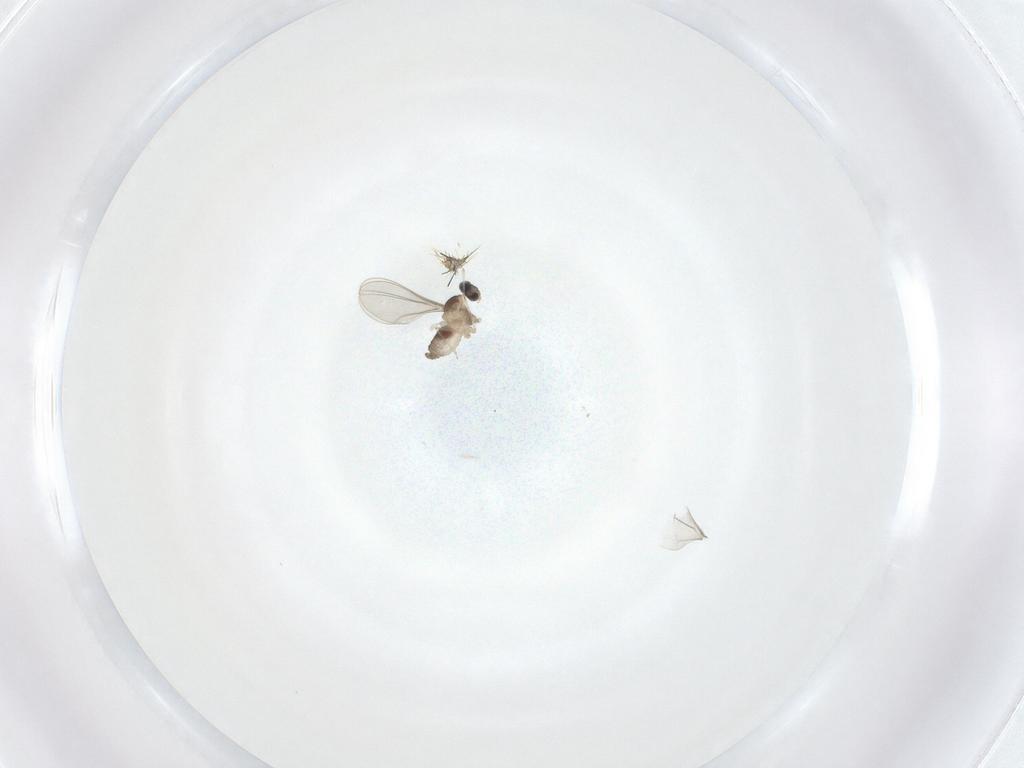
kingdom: Animalia
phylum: Arthropoda
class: Insecta
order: Diptera
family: Cecidomyiidae
